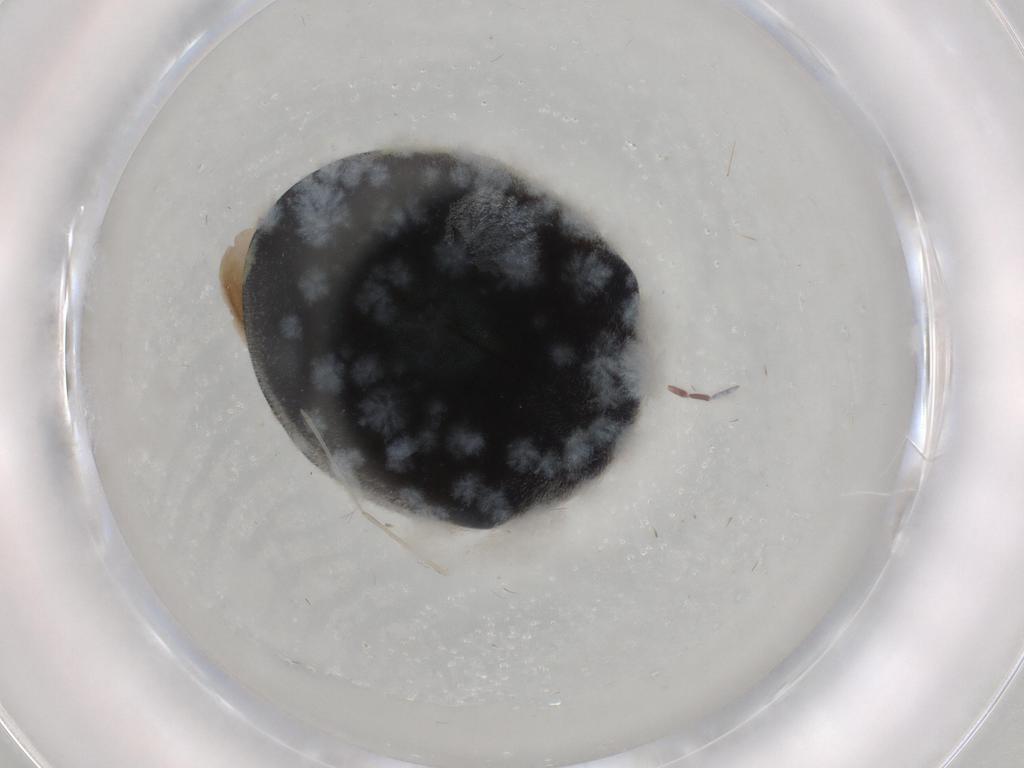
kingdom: Animalia
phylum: Arthropoda
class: Insecta
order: Coleoptera
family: Coccinellidae
